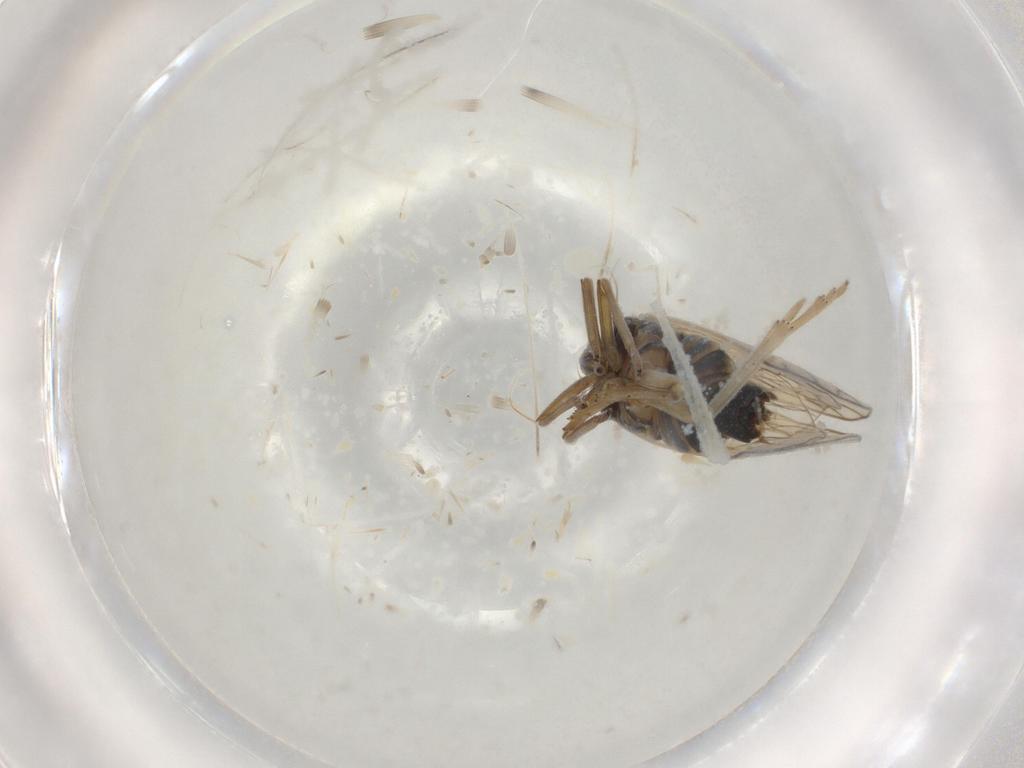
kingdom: Animalia
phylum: Arthropoda
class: Insecta
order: Hemiptera
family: Delphacidae
